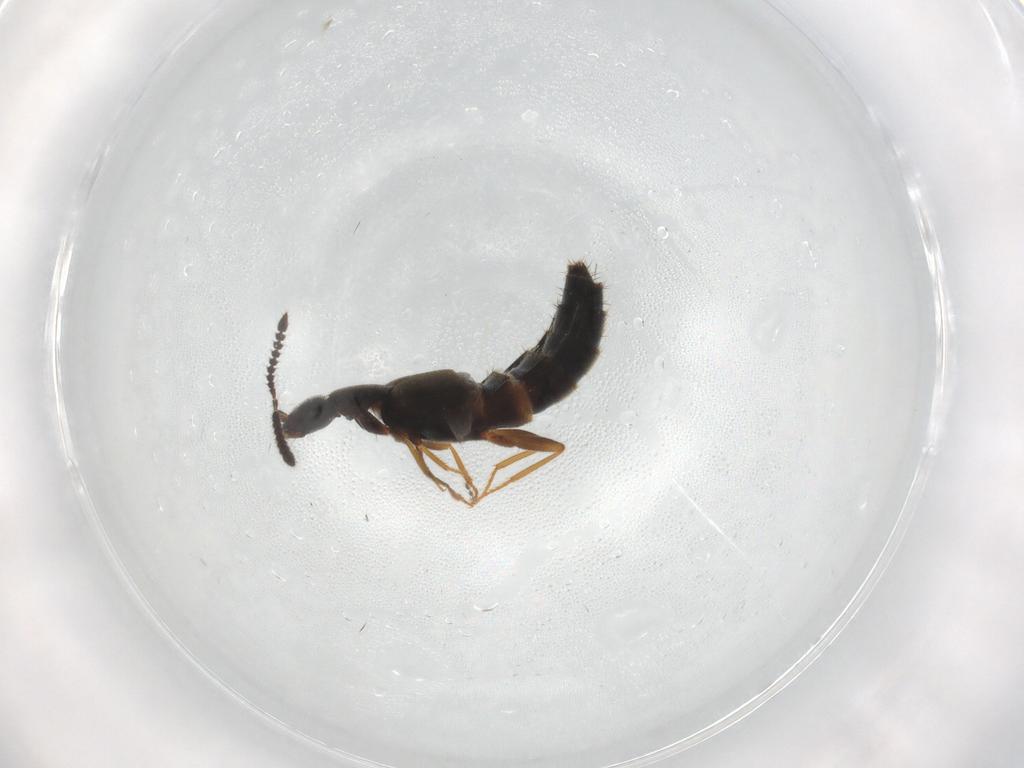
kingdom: Animalia
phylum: Arthropoda
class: Insecta
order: Coleoptera
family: Staphylinidae
